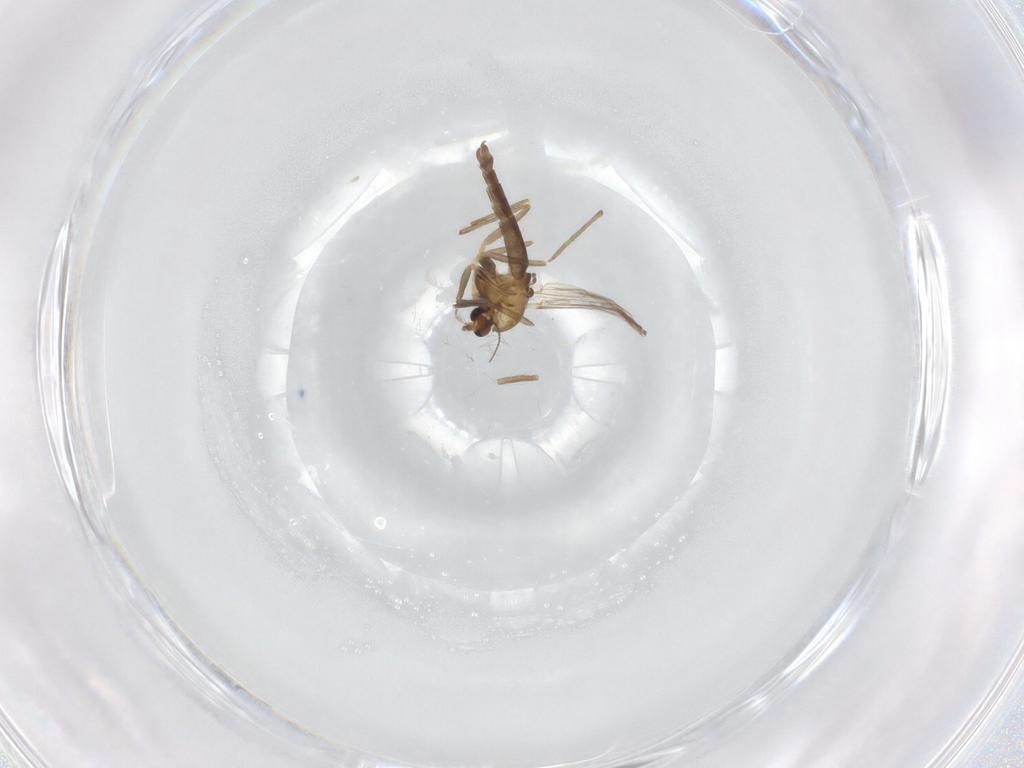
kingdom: Animalia
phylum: Arthropoda
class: Insecta
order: Diptera
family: Chironomidae
